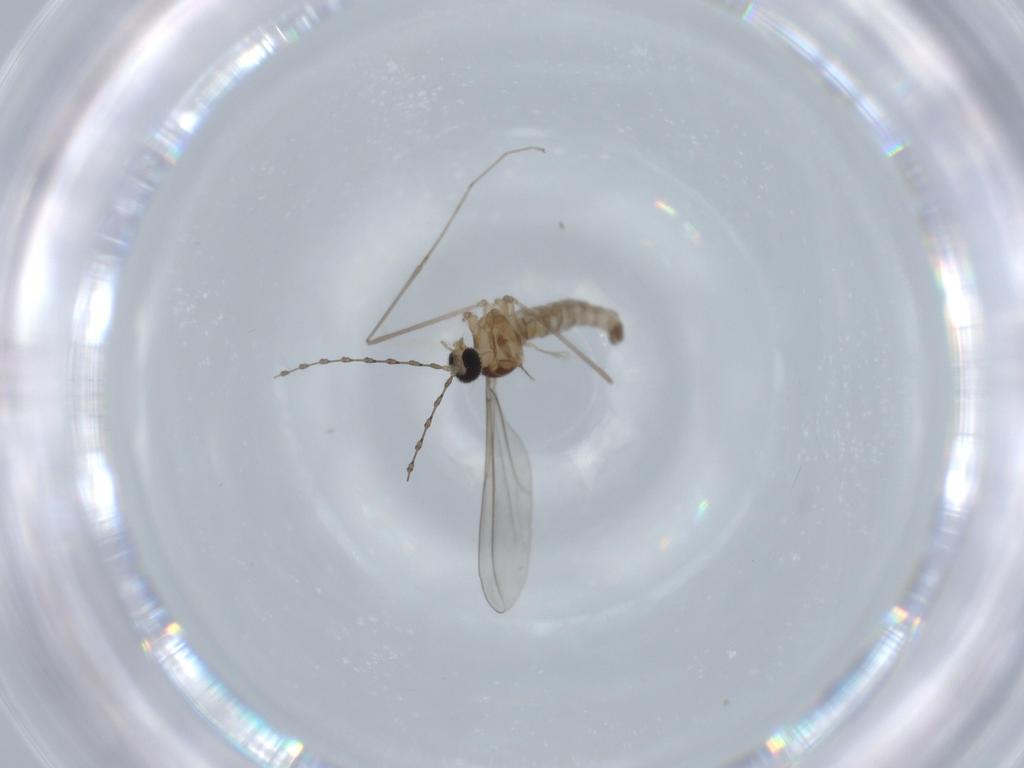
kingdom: Animalia
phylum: Arthropoda
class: Insecta
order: Diptera
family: Cecidomyiidae
